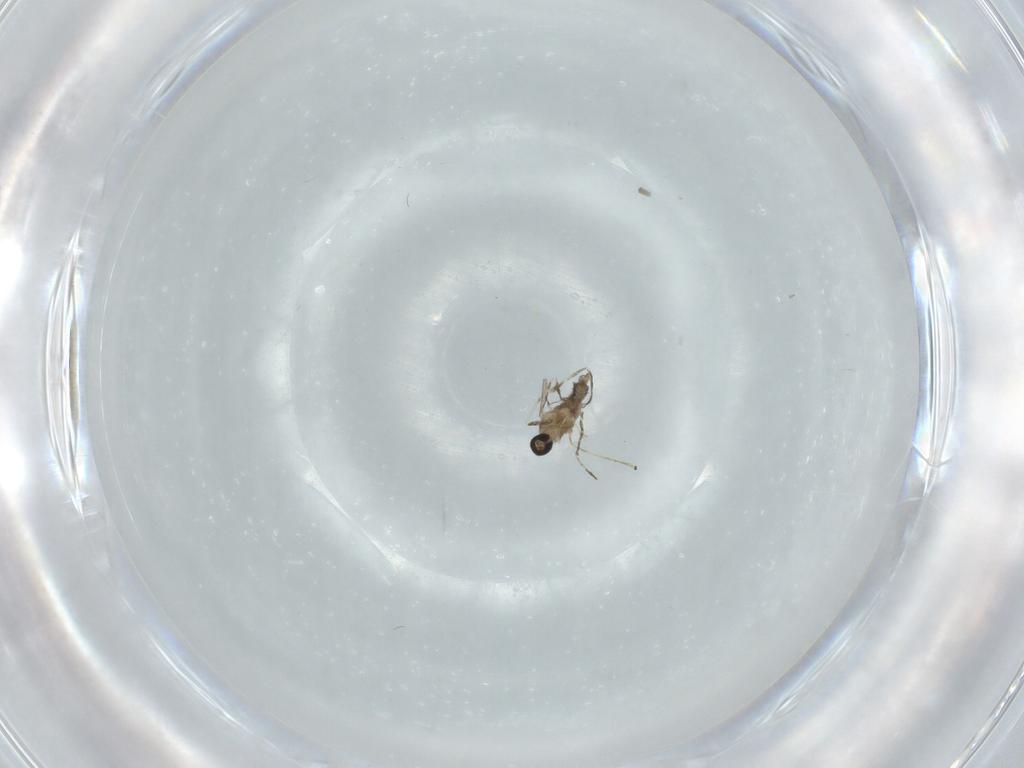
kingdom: Animalia
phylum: Arthropoda
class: Insecta
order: Diptera
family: Cecidomyiidae
